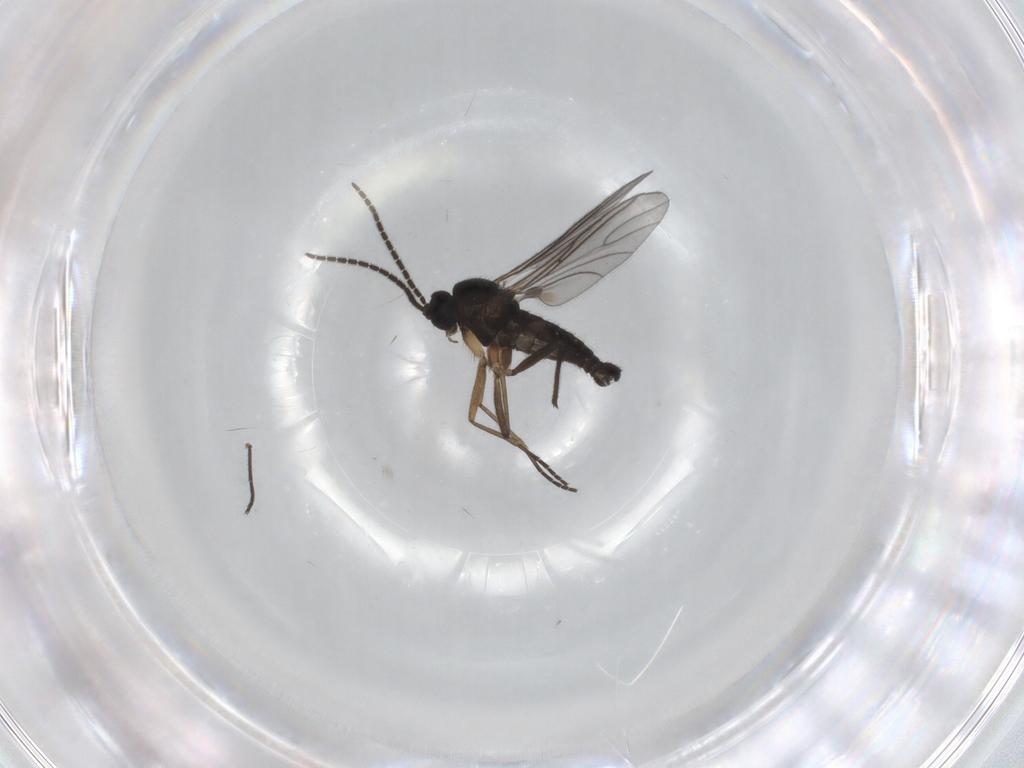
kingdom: Animalia
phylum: Arthropoda
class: Insecta
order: Diptera
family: Sciaridae
